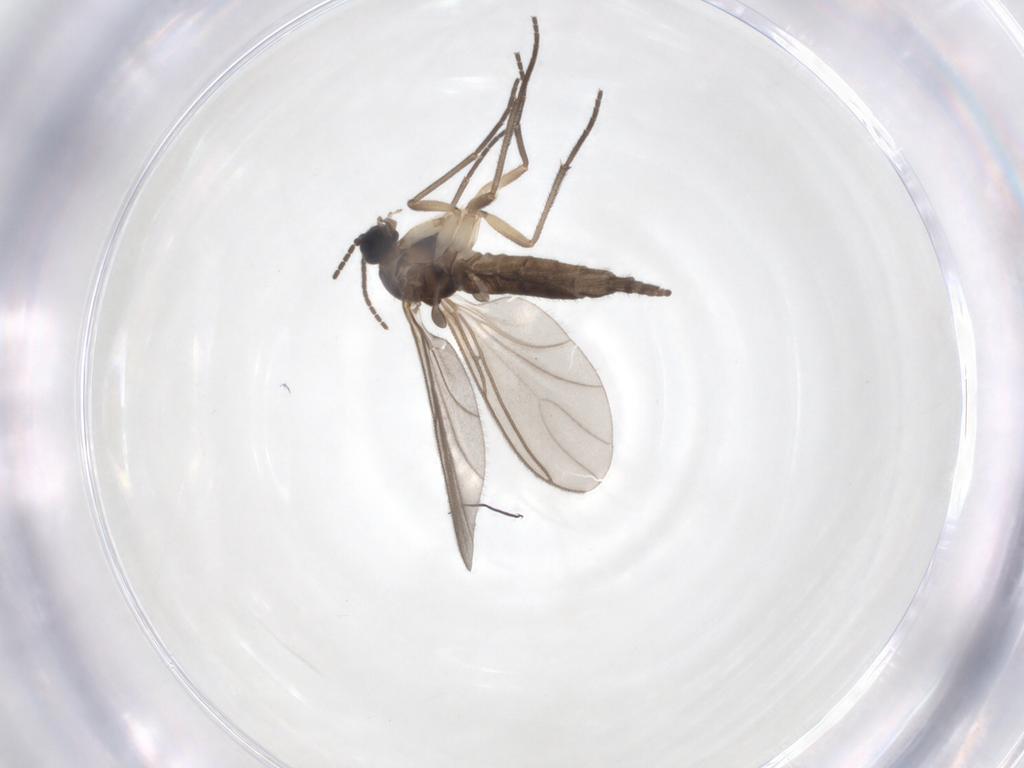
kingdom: Animalia
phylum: Arthropoda
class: Insecta
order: Diptera
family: Sciaridae
